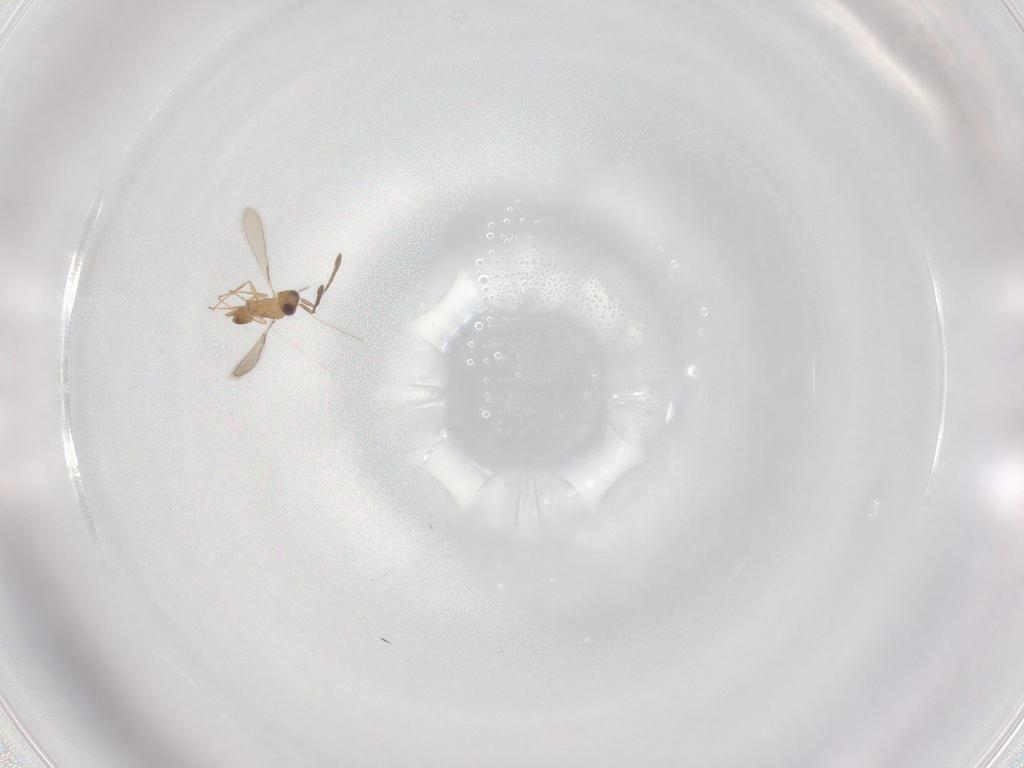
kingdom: Animalia
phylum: Arthropoda
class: Insecta
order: Hymenoptera
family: Mymaridae
